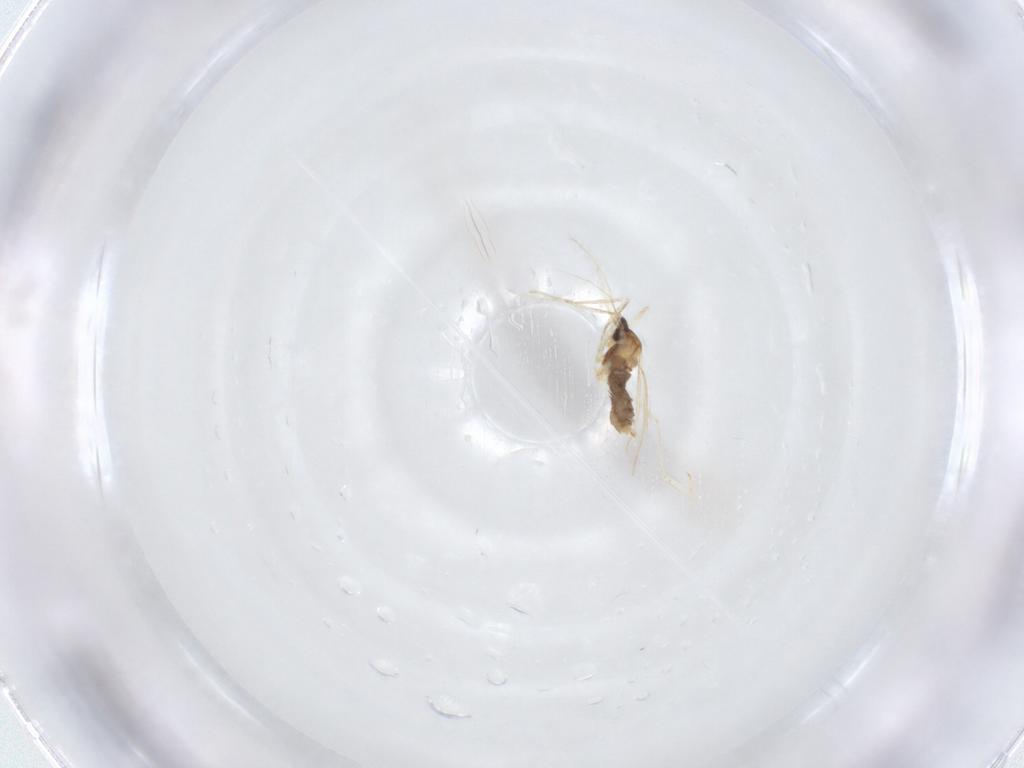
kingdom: Animalia
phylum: Arthropoda
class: Insecta
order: Diptera
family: Cecidomyiidae
